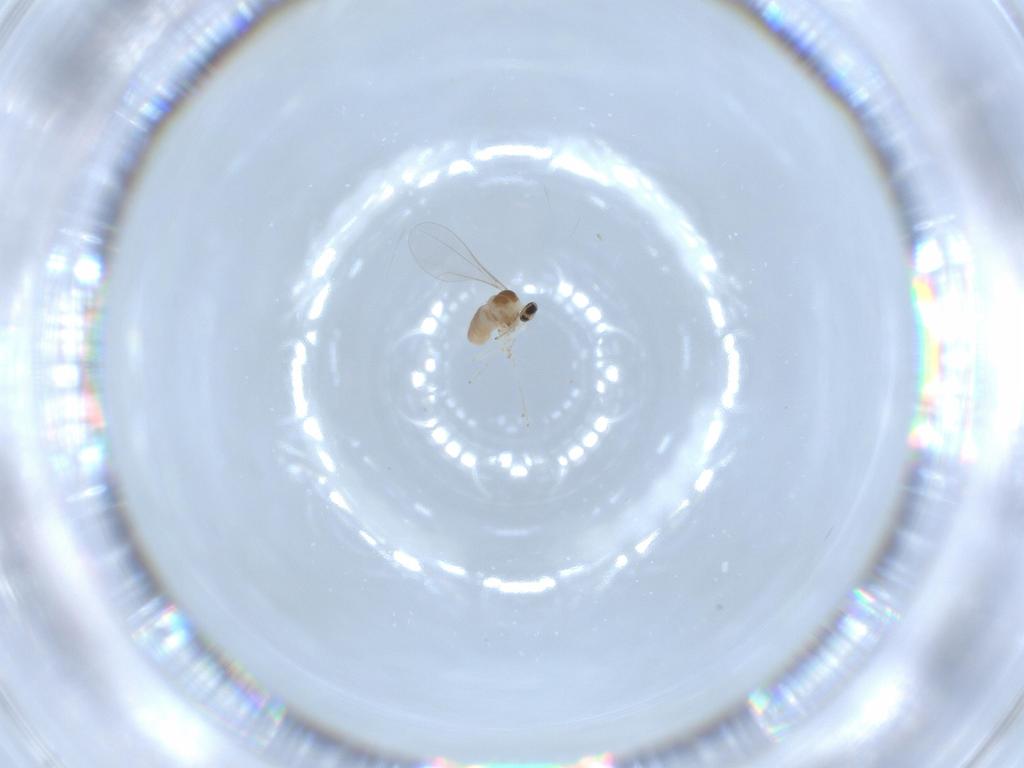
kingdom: Animalia
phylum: Arthropoda
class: Insecta
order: Diptera
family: Cecidomyiidae
